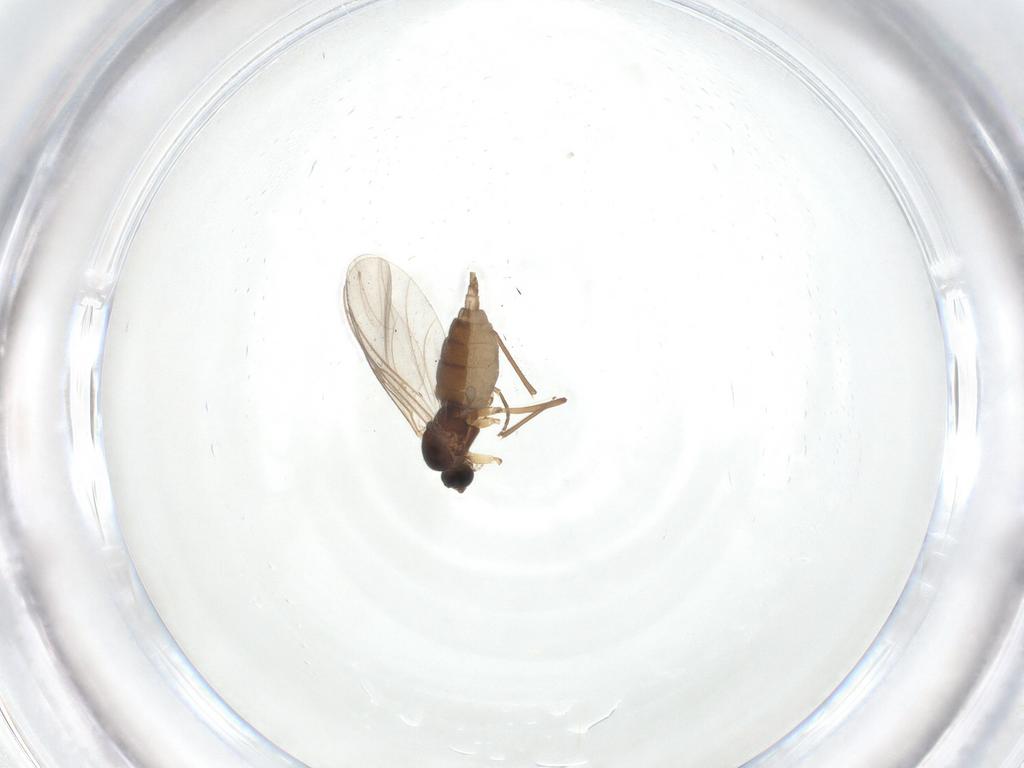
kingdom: Animalia
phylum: Arthropoda
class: Insecta
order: Diptera
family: Sciaridae
